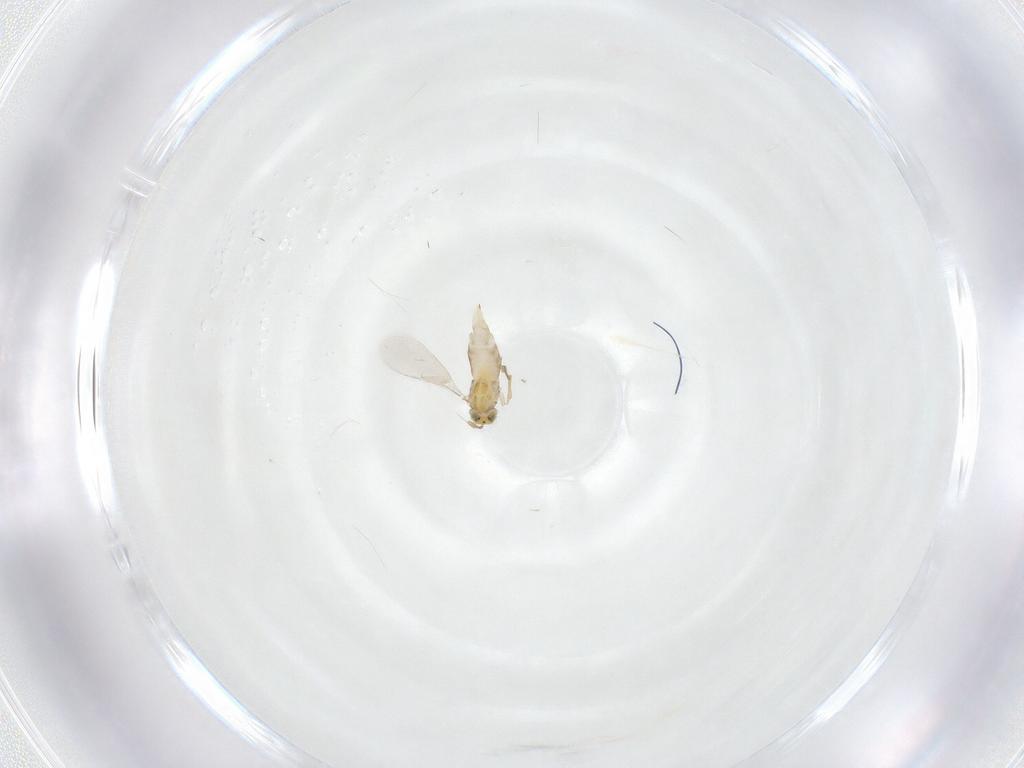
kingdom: Animalia
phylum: Arthropoda
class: Insecta
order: Hymenoptera
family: Aphelinidae
